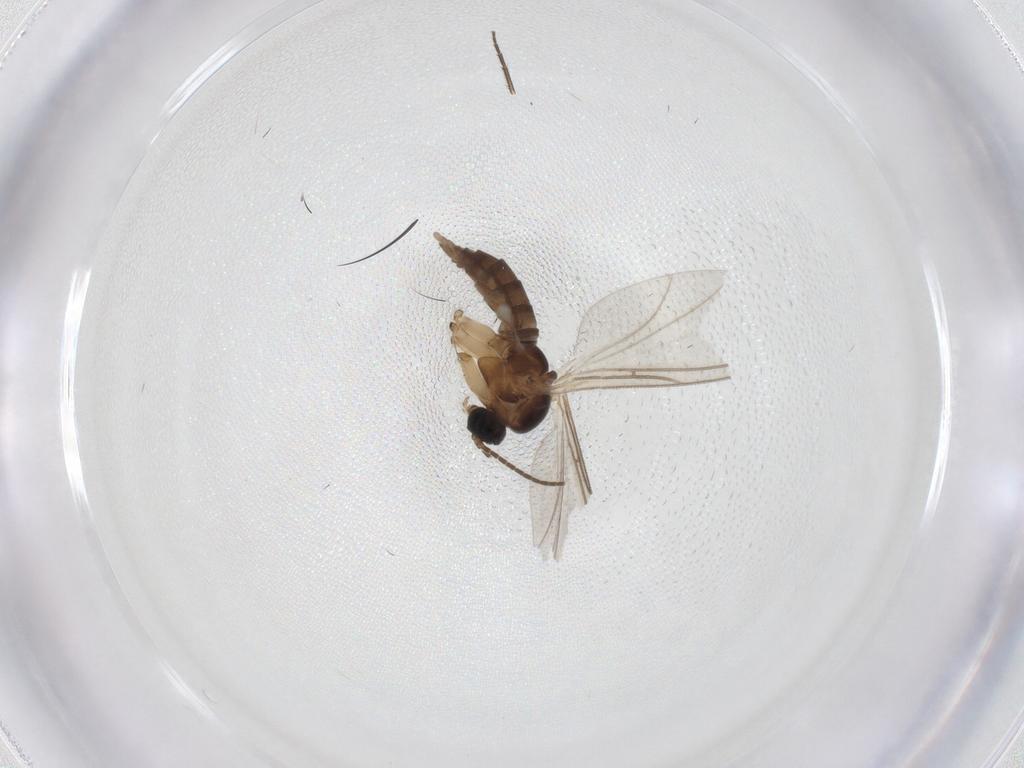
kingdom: Animalia
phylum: Arthropoda
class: Insecta
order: Diptera
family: Sciaridae
